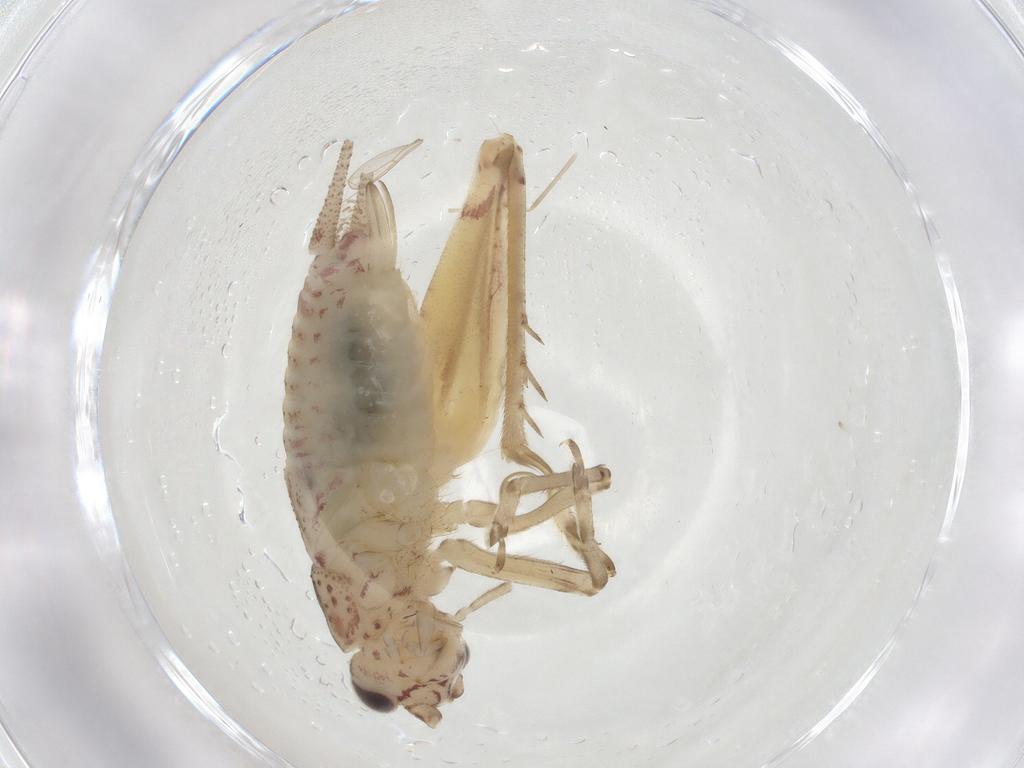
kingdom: Animalia
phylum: Arthropoda
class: Insecta
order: Orthoptera
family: Trigonidiidae
